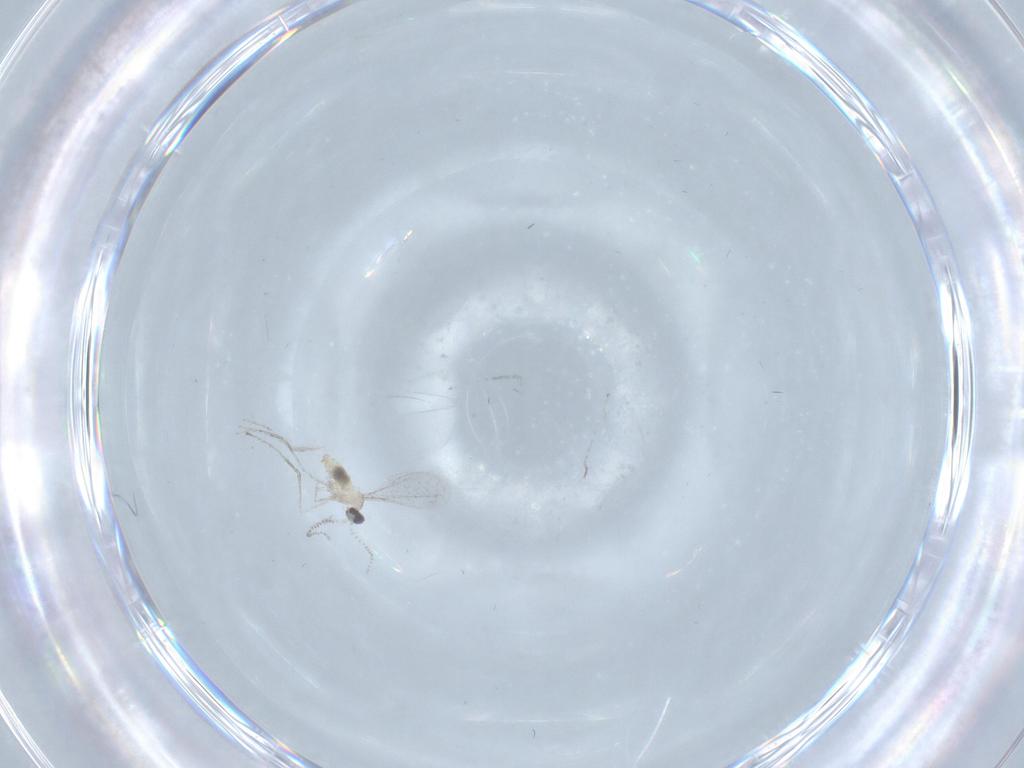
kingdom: Animalia
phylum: Arthropoda
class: Insecta
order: Diptera
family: Cecidomyiidae
